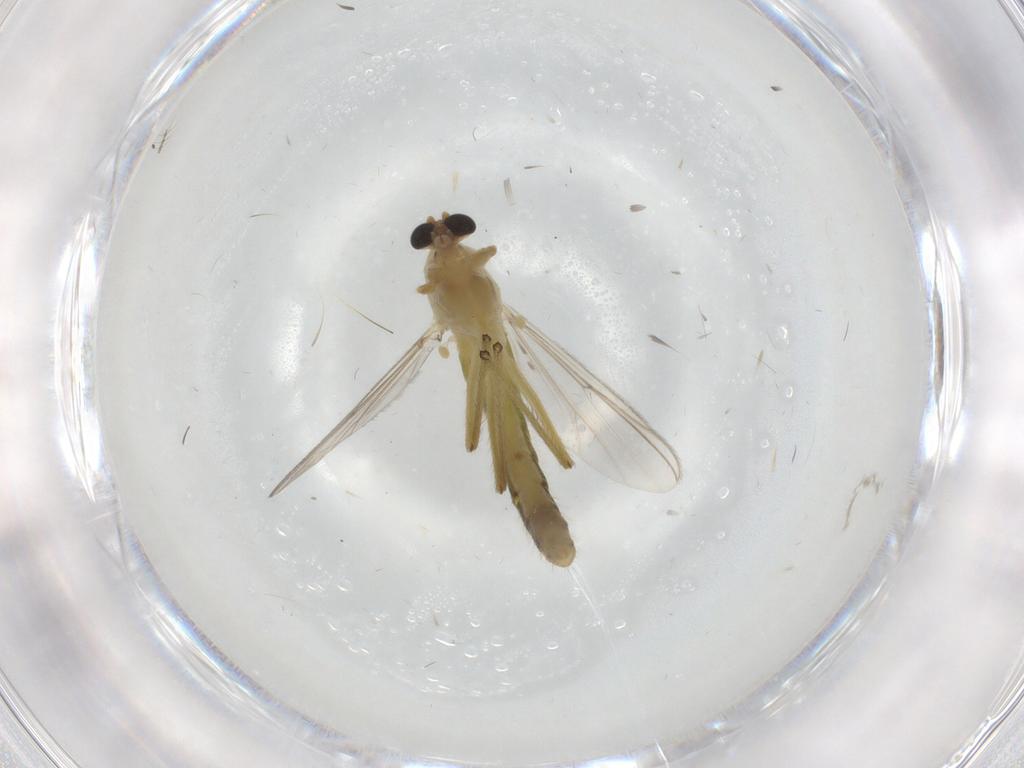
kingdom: Animalia
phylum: Arthropoda
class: Insecta
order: Diptera
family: Chironomidae
